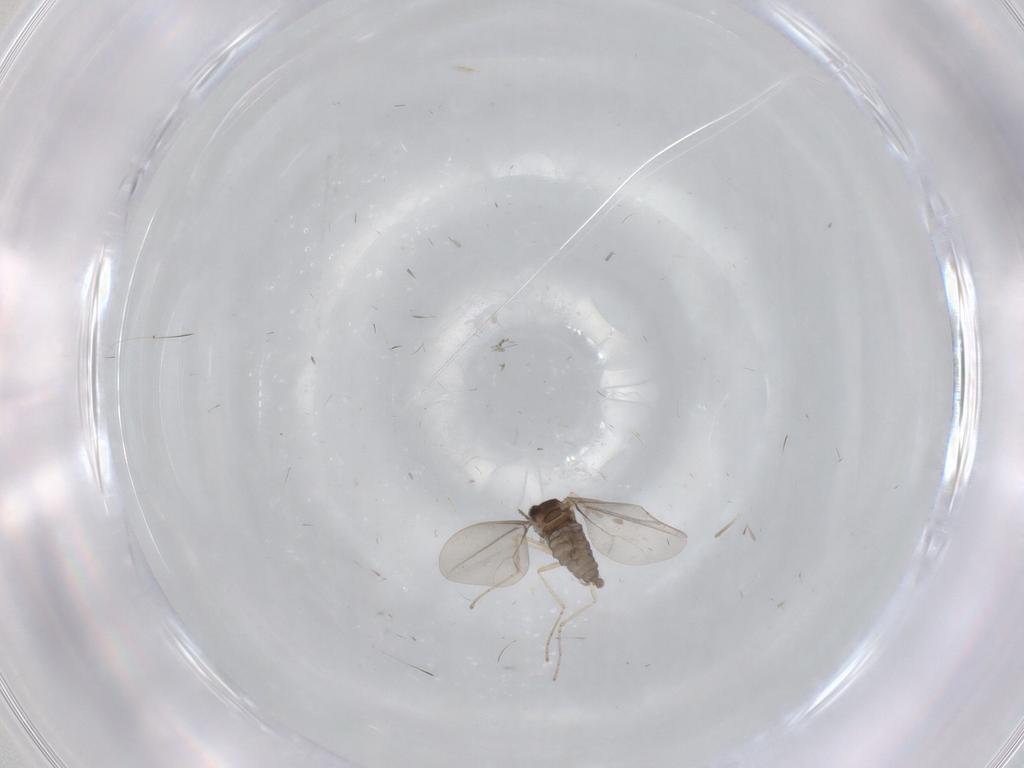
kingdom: Animalia
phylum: Arthropoda
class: Insecta
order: Diptera
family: Cecidomyiidae
